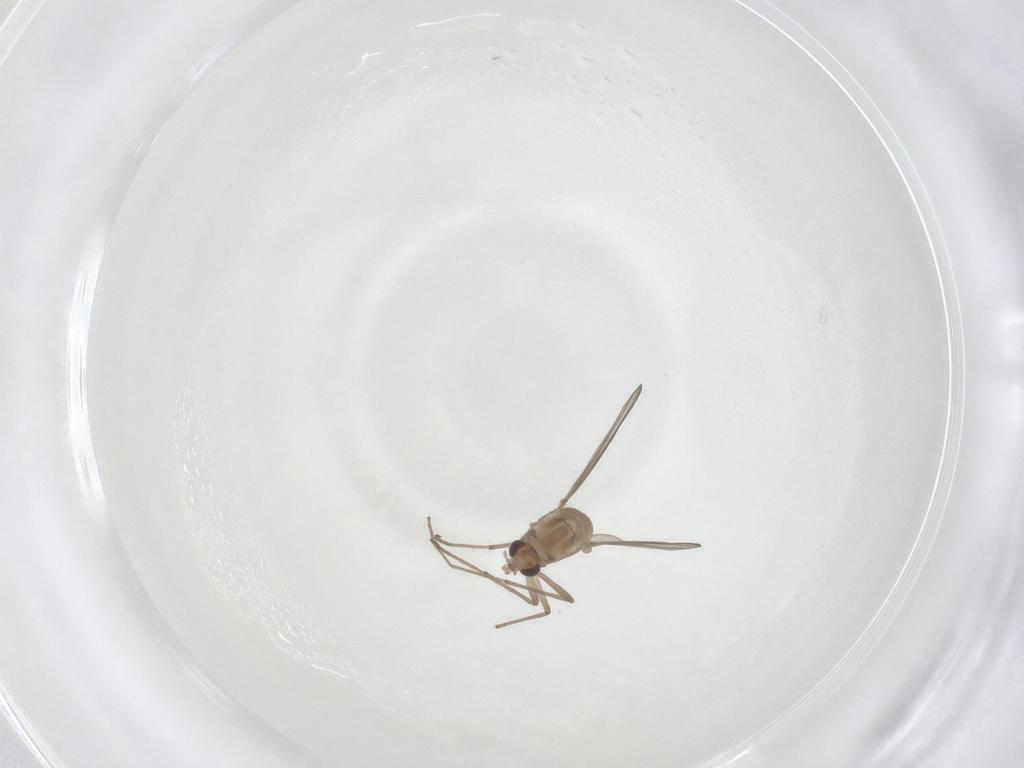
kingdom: Animalia
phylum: Arthropoda
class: Insecta
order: Diptera
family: Chironomidae
